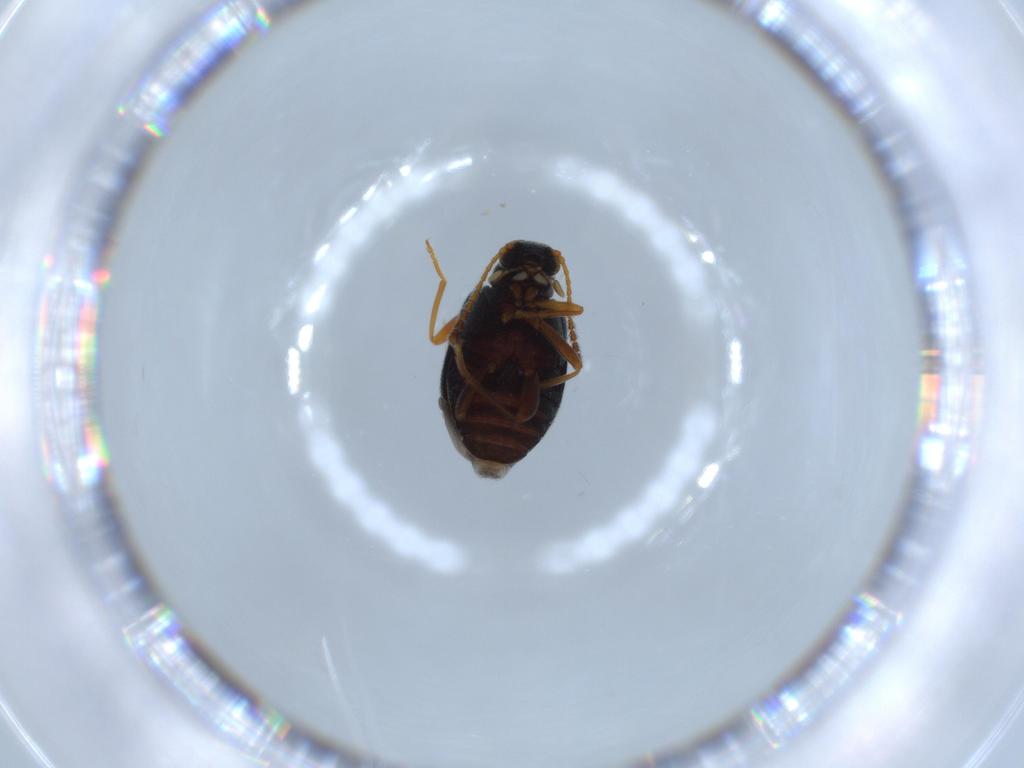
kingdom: Animalia
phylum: Arthropoda
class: Insecta
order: Coleoptera
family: Aderidae
